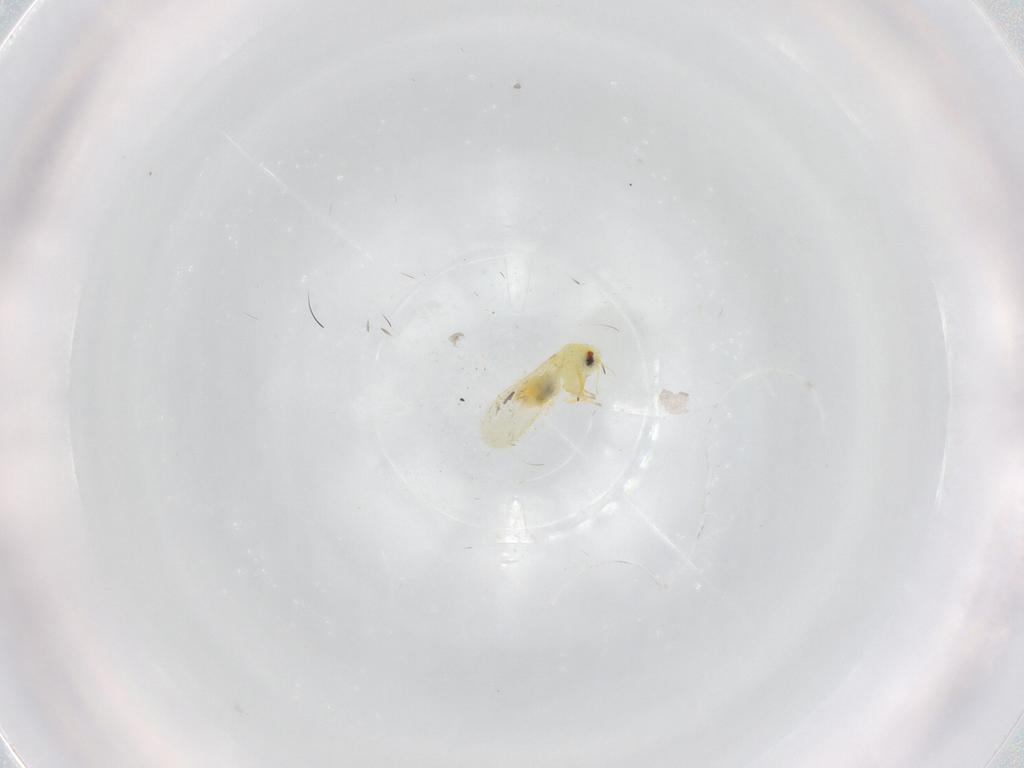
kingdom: Animalia
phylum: Arthropoda
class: Insecta
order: Hemiptera
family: Aleyrodidae
